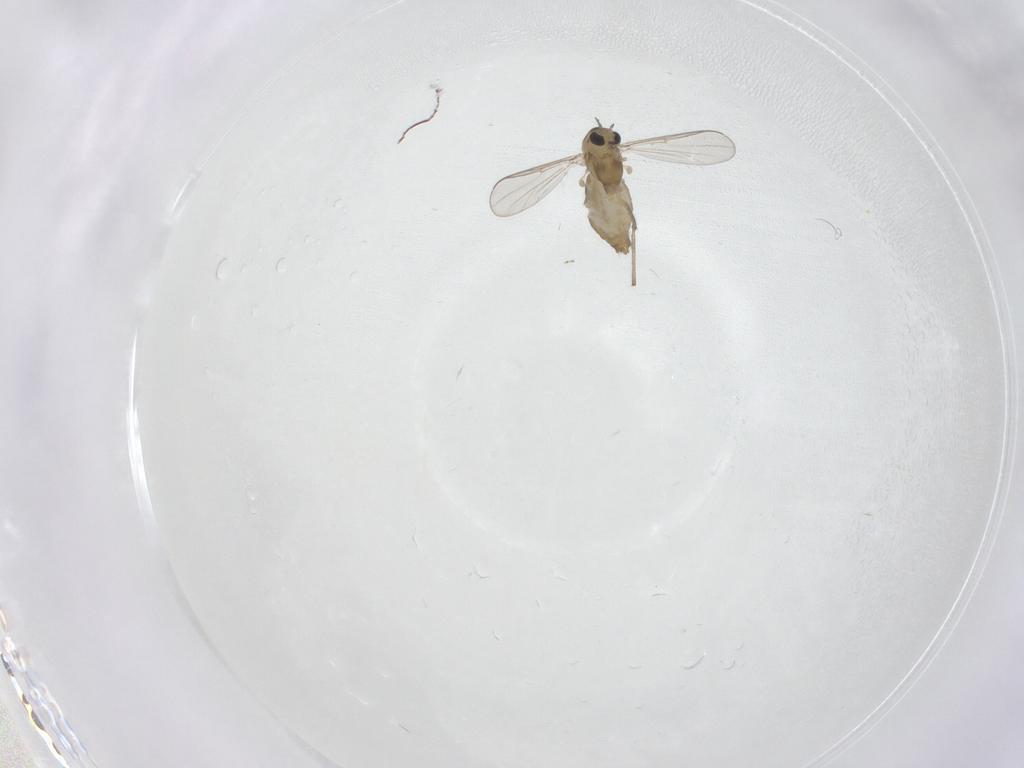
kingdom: Animalia
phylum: Arthropoda
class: Insecta
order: Diptera
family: Chironomidae
